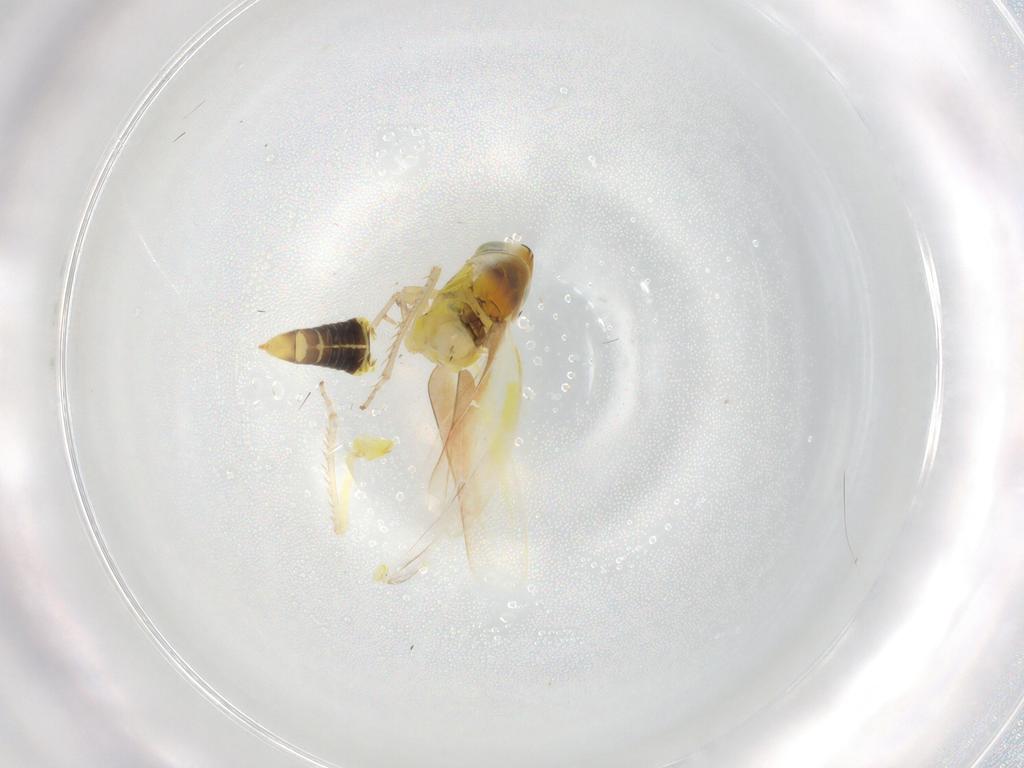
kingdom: Animalia
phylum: Arthropoda
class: Insecta
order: Hemiptera
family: Cicadellidae
